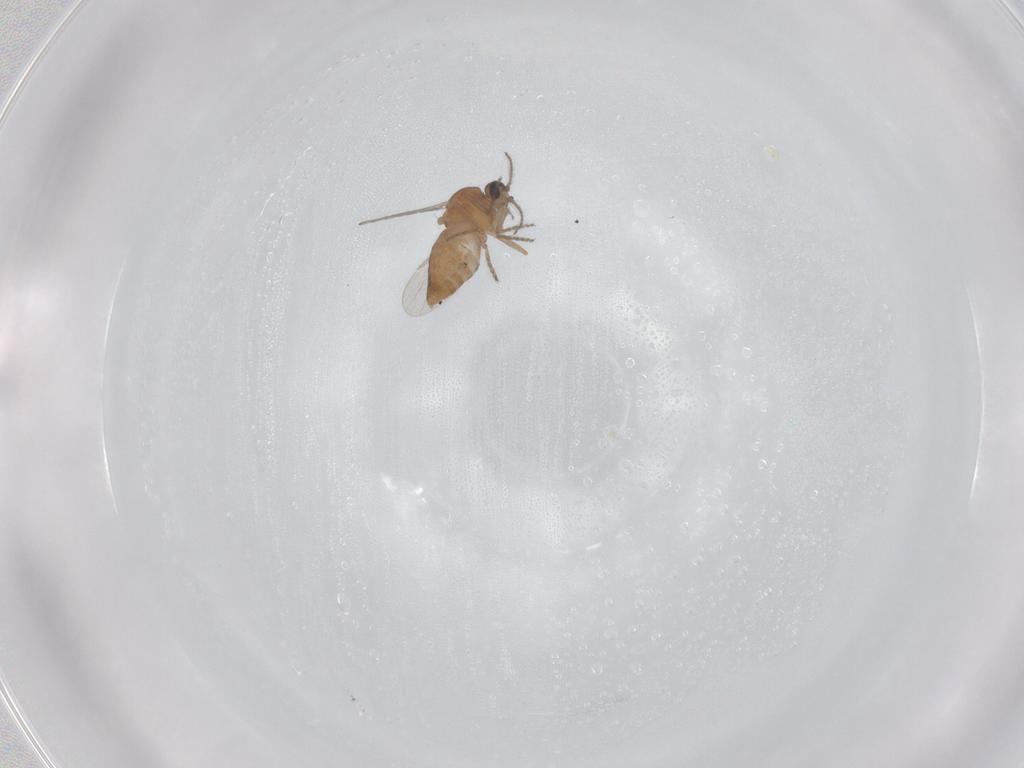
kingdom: Animalia
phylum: Arthropoda
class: Insecta
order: Diptera
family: Ceratopogonidae
